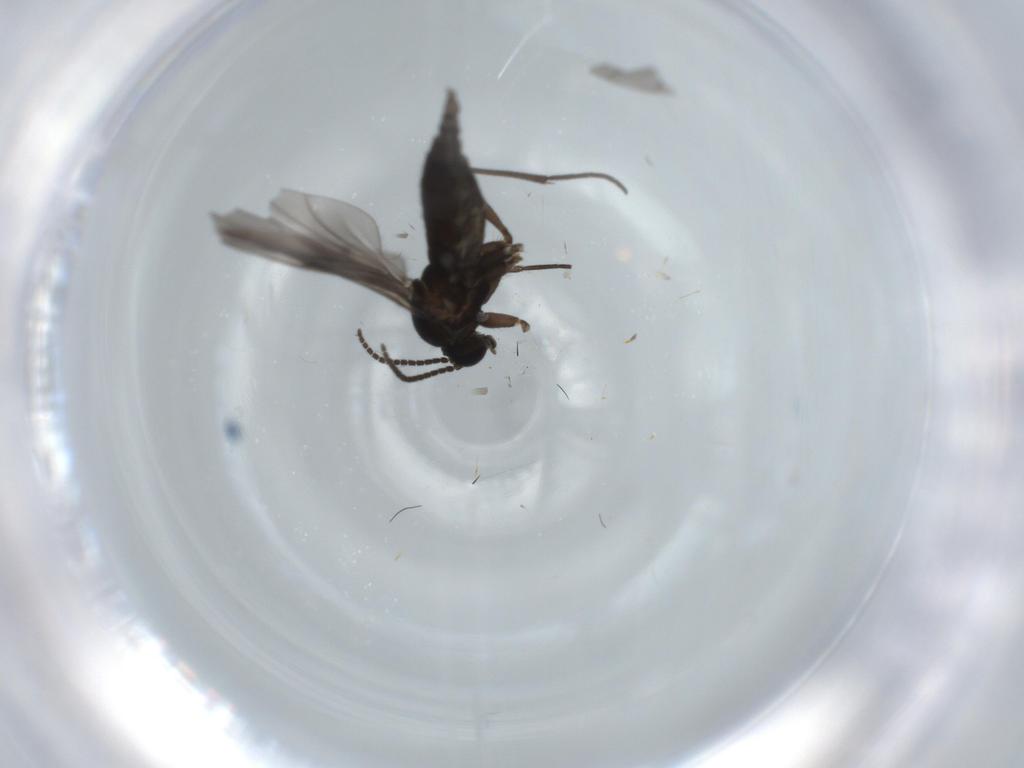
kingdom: Animalia
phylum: Arthropoda
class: Insecta
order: Diptera
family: Sciaridae
